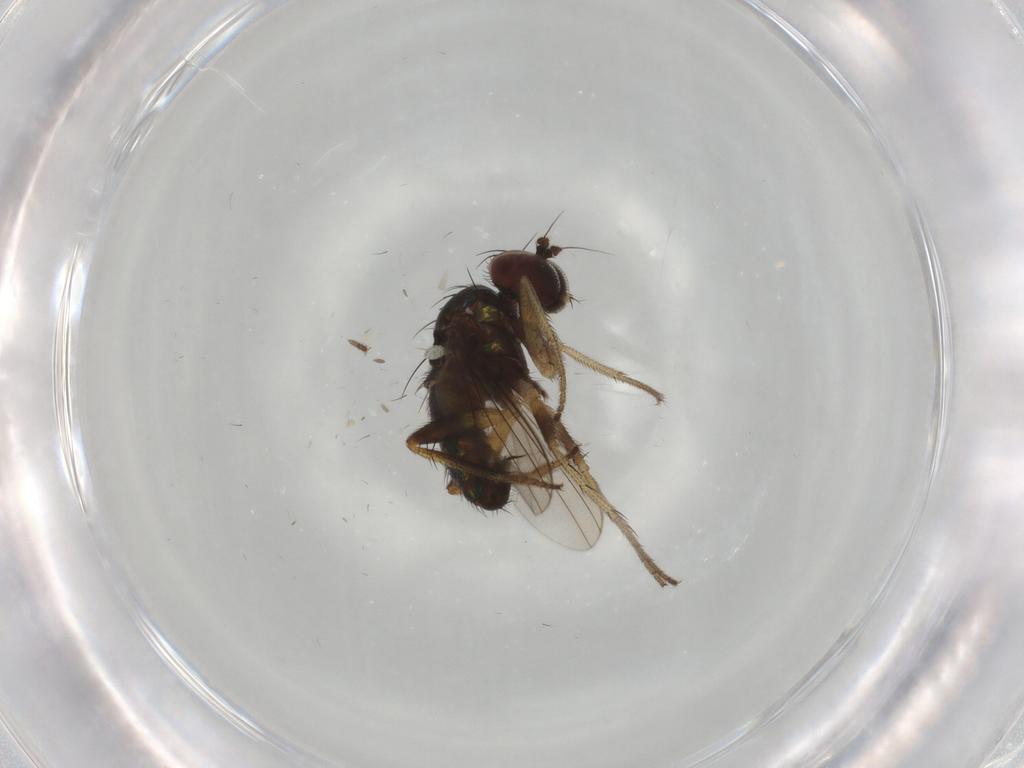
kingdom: Animalia
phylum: Arthropoda
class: Insecta
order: Diptera
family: Dolichopodidae
